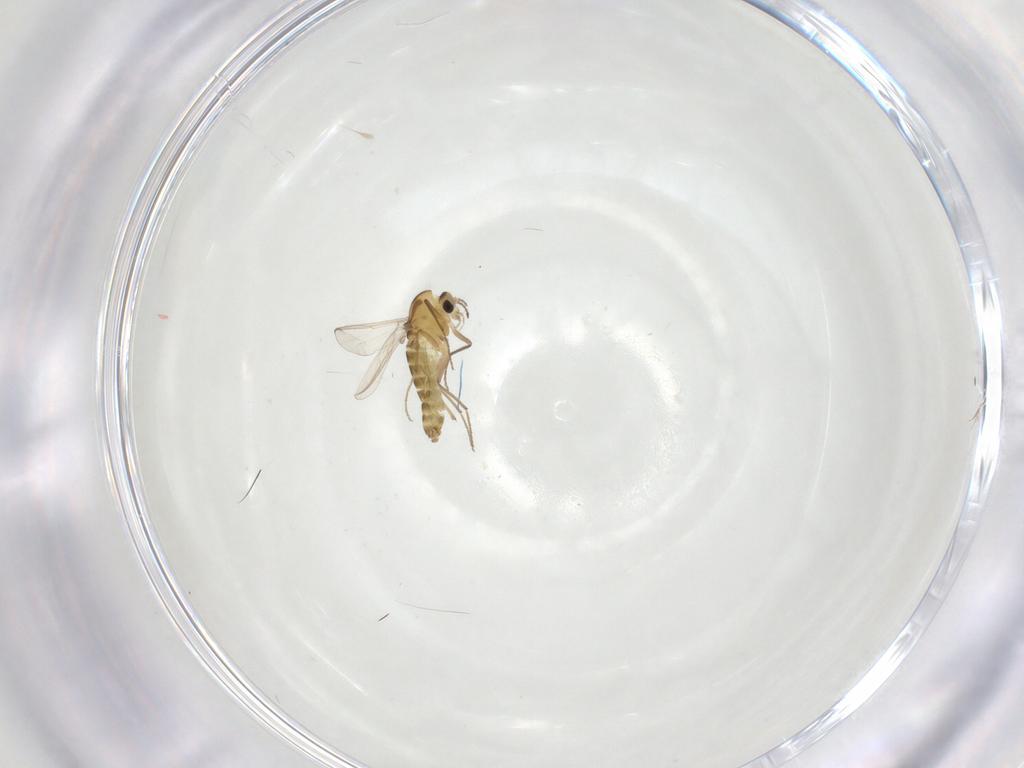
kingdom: Animalia
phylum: Arthropoda
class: Insecta
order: Diptera
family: Chironomidae
